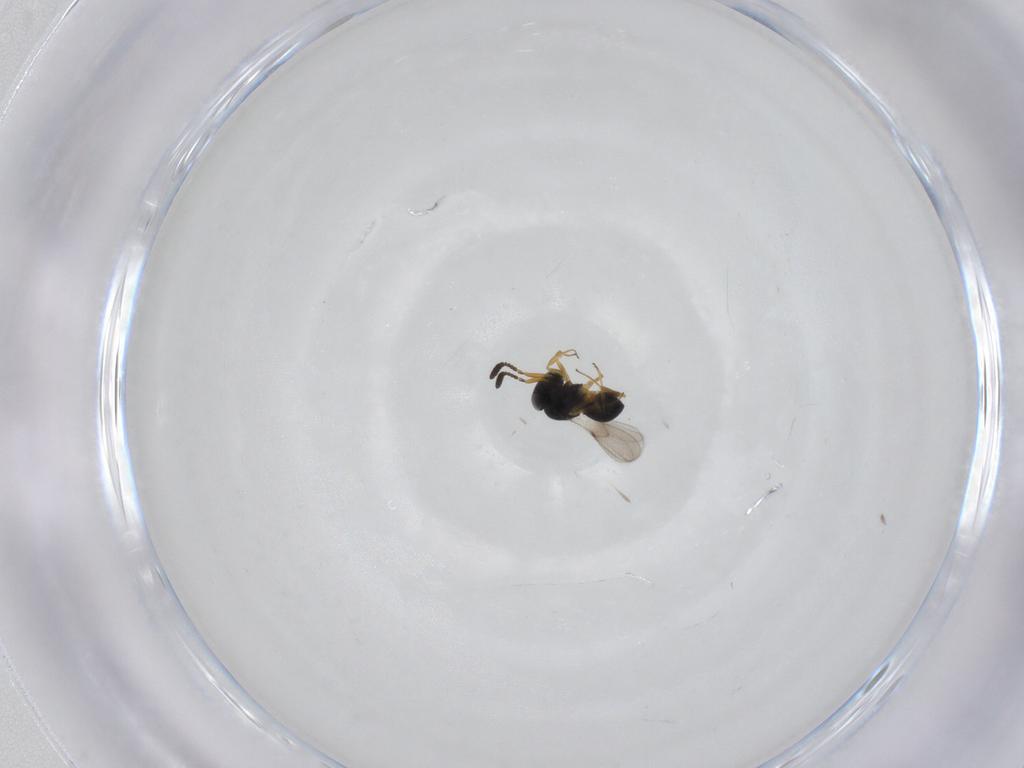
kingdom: Animalia
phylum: Arthropoda
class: Insecta
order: Hymenoptera
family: Scelionidae
